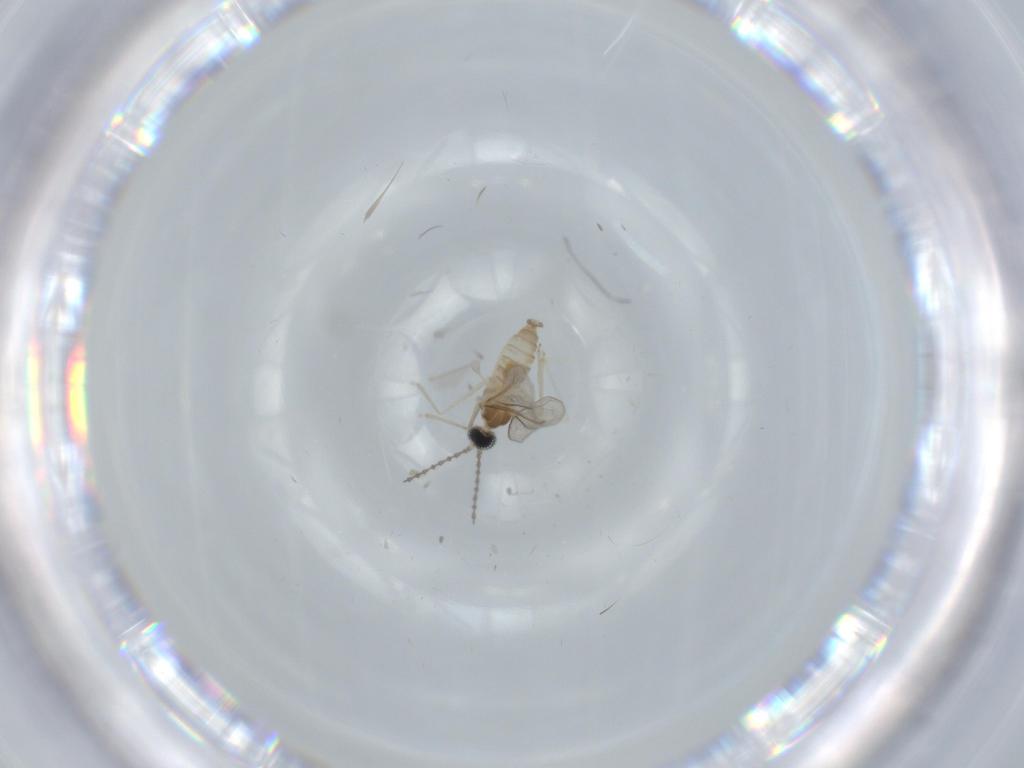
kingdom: Animalia
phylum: Arthropoda
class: Insecta
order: Diptera
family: Cecidomyiidae
